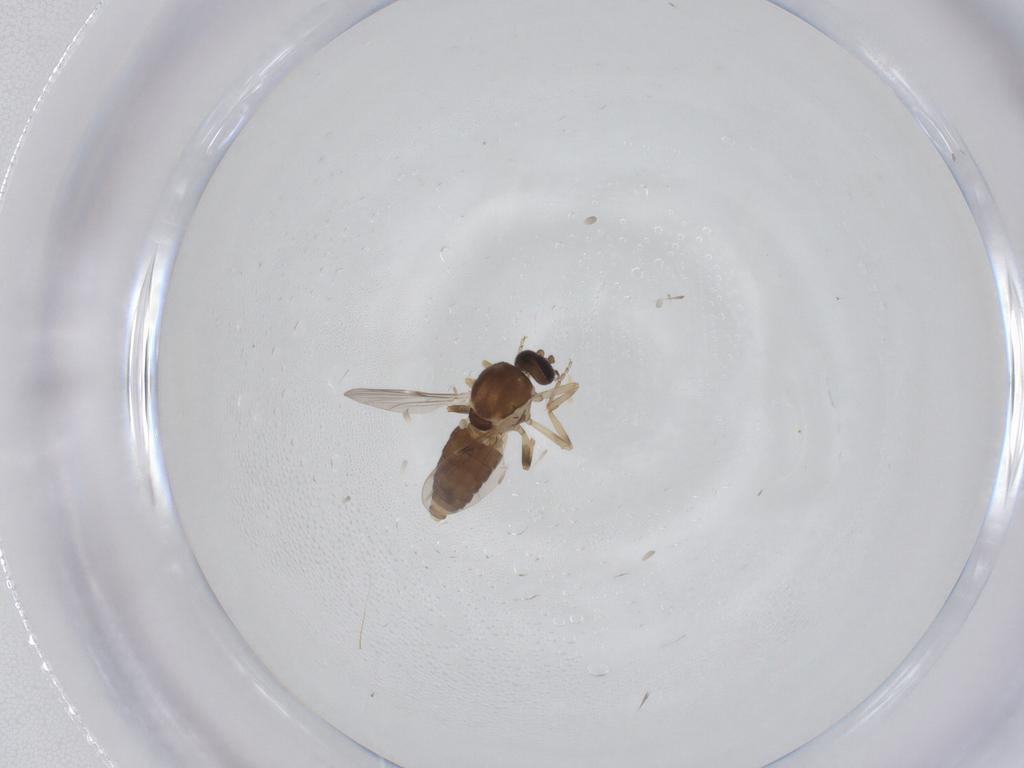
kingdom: Animalia
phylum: Arthropoda
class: Insecta
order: Diptera
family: Ceratopogonidae
